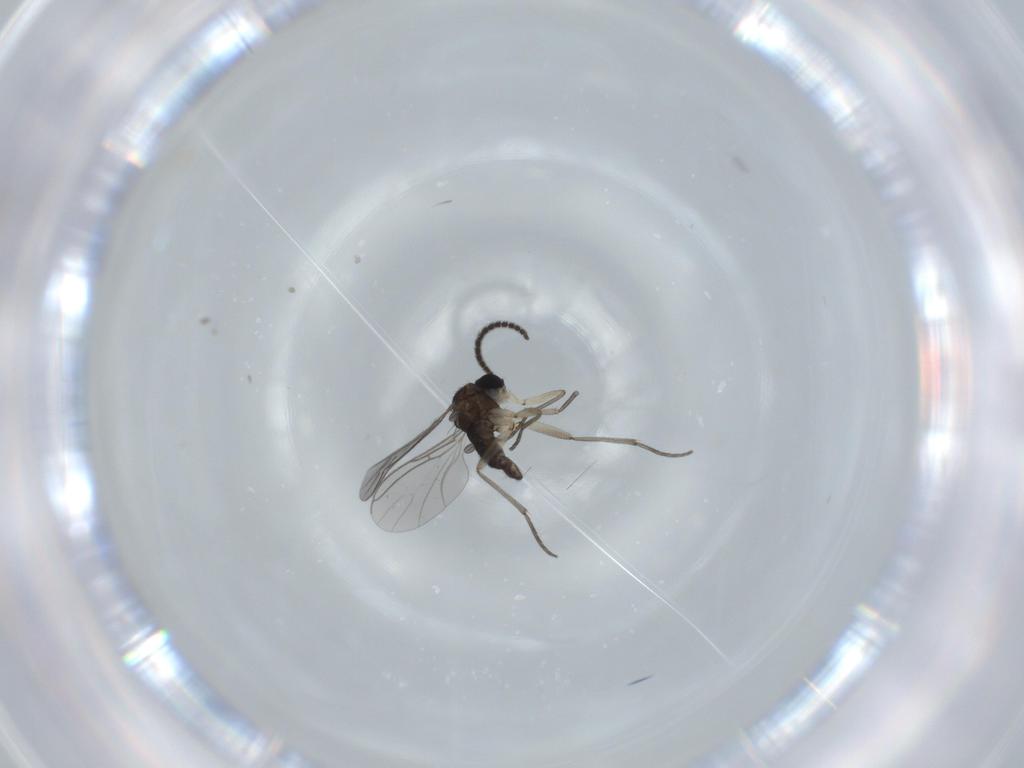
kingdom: Animalia
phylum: Arthropoda
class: Insecta
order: Diptera
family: Sciaridae
